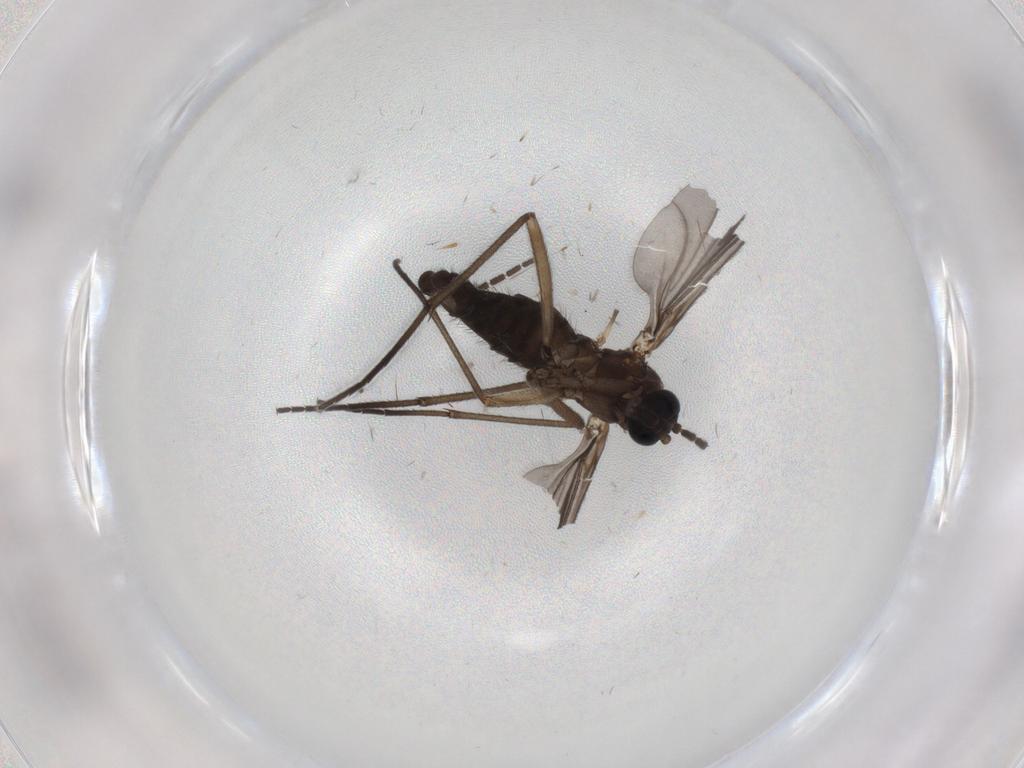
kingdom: Animalia
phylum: Arthropoda
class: Insecta
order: Diptera
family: Sciaridae
